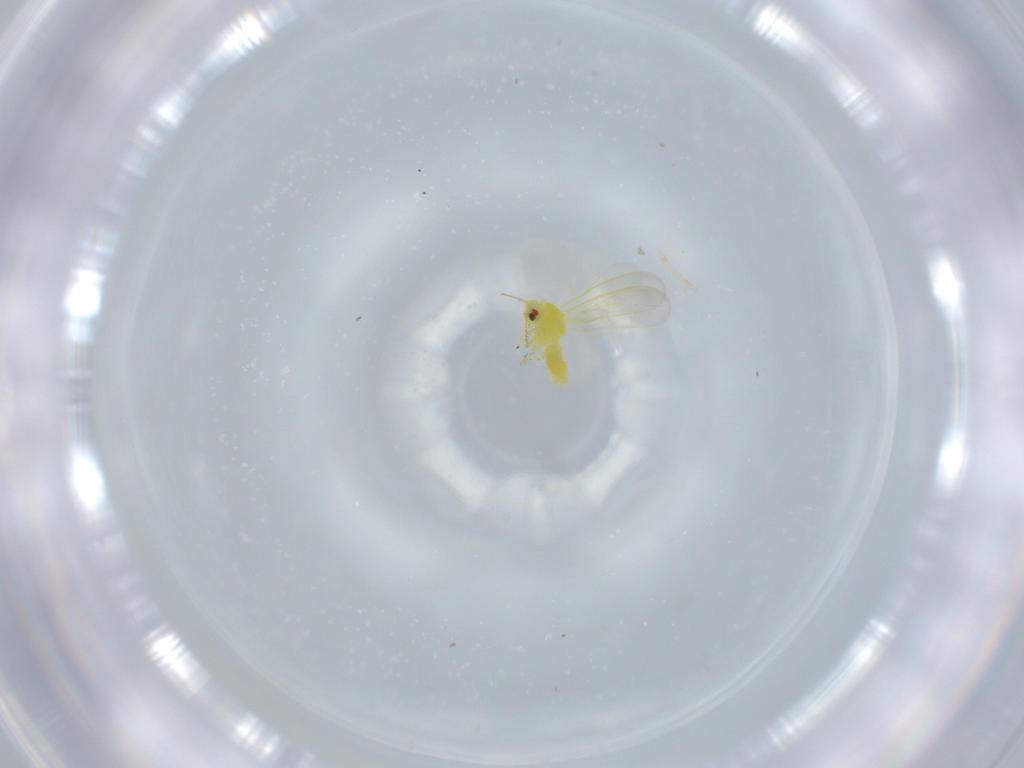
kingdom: Animalia
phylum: Arthropoda
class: Insecta
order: Hemiptera
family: Aleyrodidae
